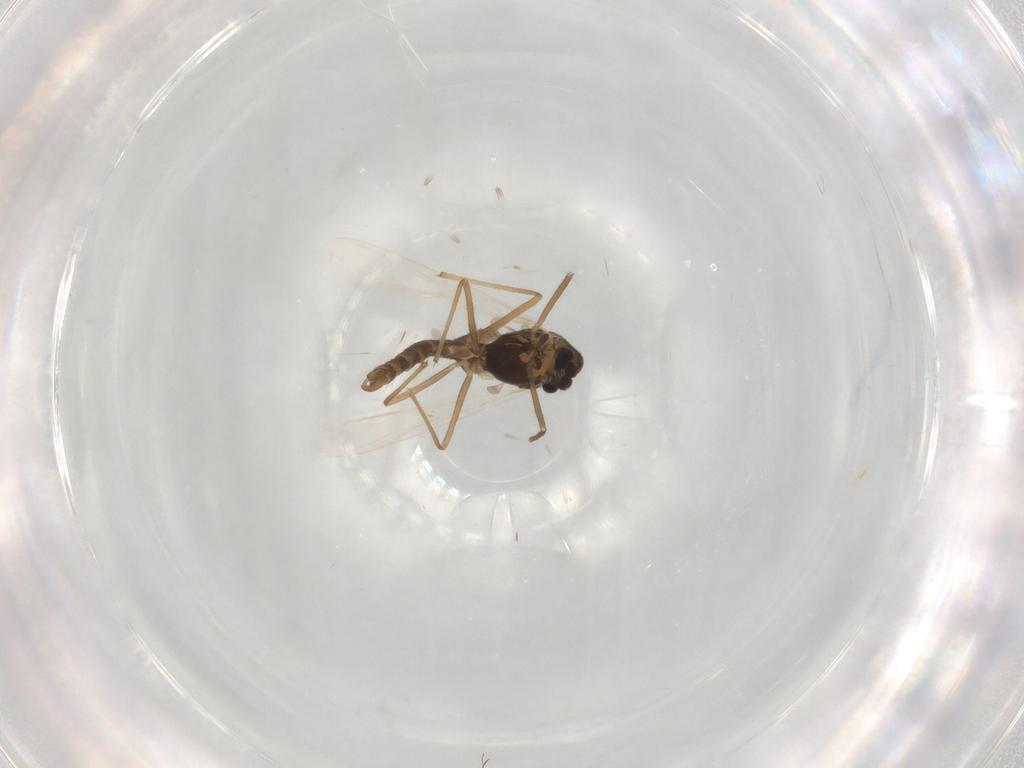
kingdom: Animalia
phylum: Arthropoda
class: Insecta
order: Diptera
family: Chironomidae
